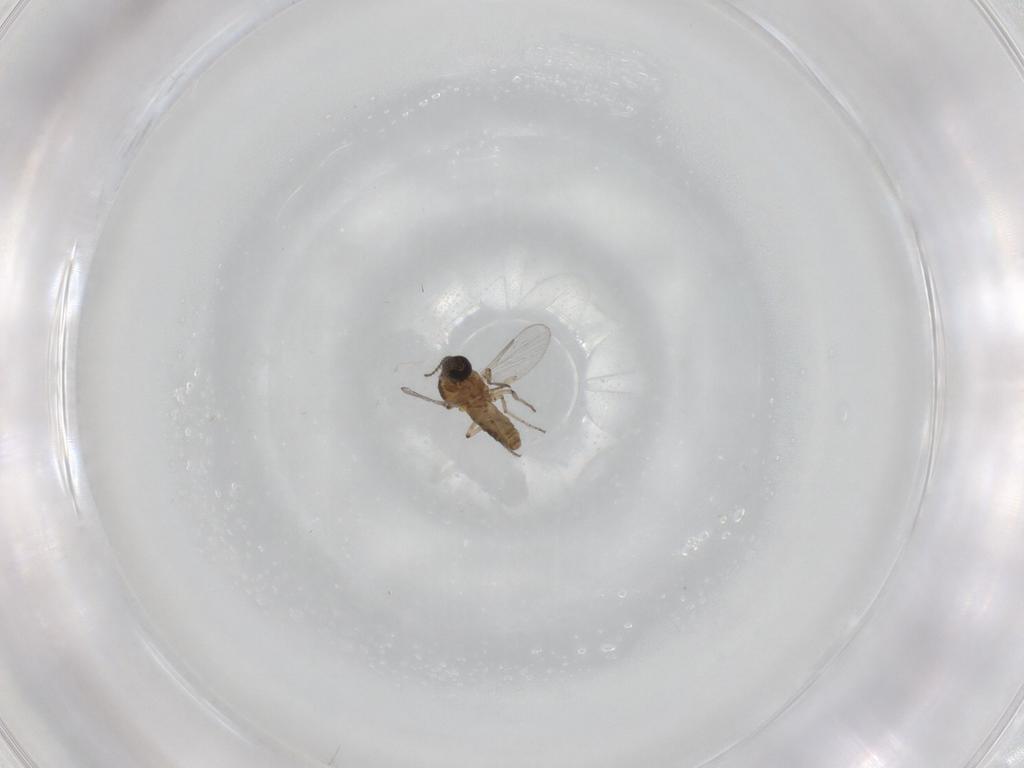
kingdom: Animalia
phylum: Arthropoda
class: Insecta
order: Diptera
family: Ceratopogonidae
